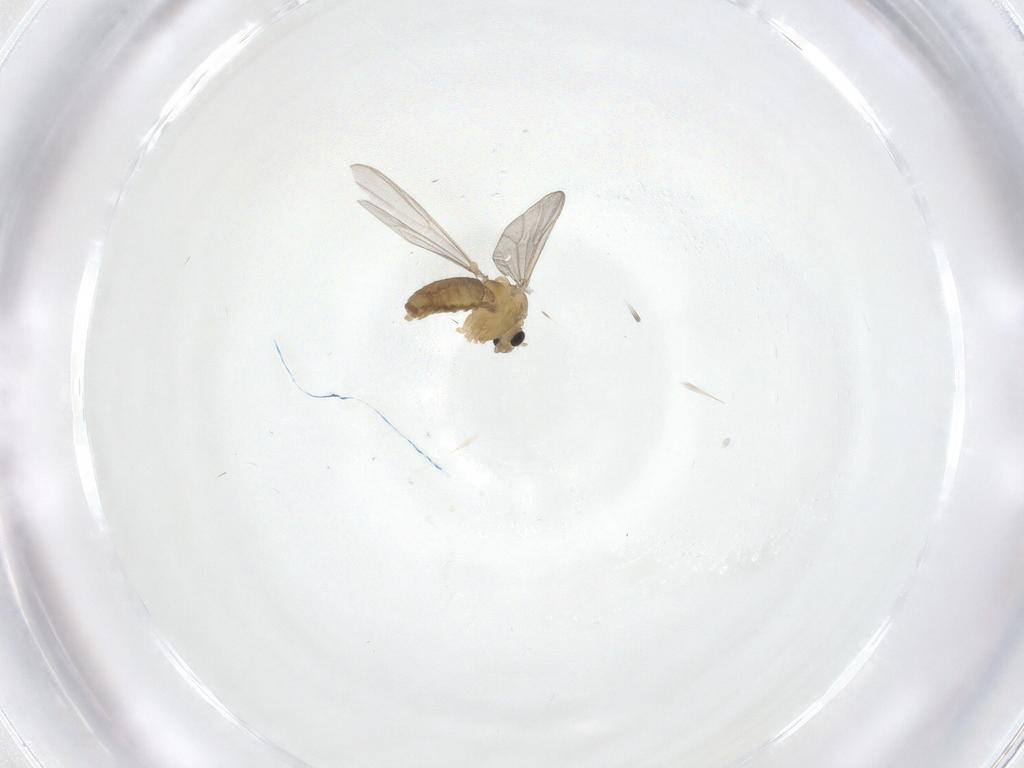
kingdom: Animalia
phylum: Arthropoda
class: Insecta
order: Diptera
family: Chironomidae
